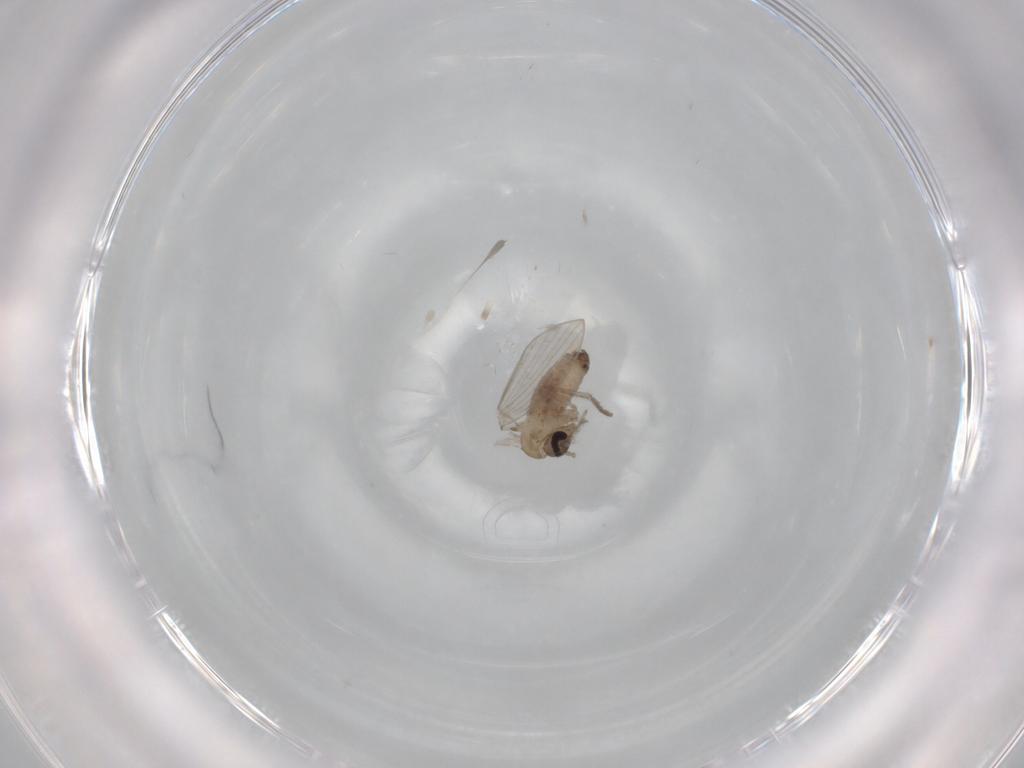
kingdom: Animalia
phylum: Arthropoda
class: Insecta
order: Diptera
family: Psychodidae
